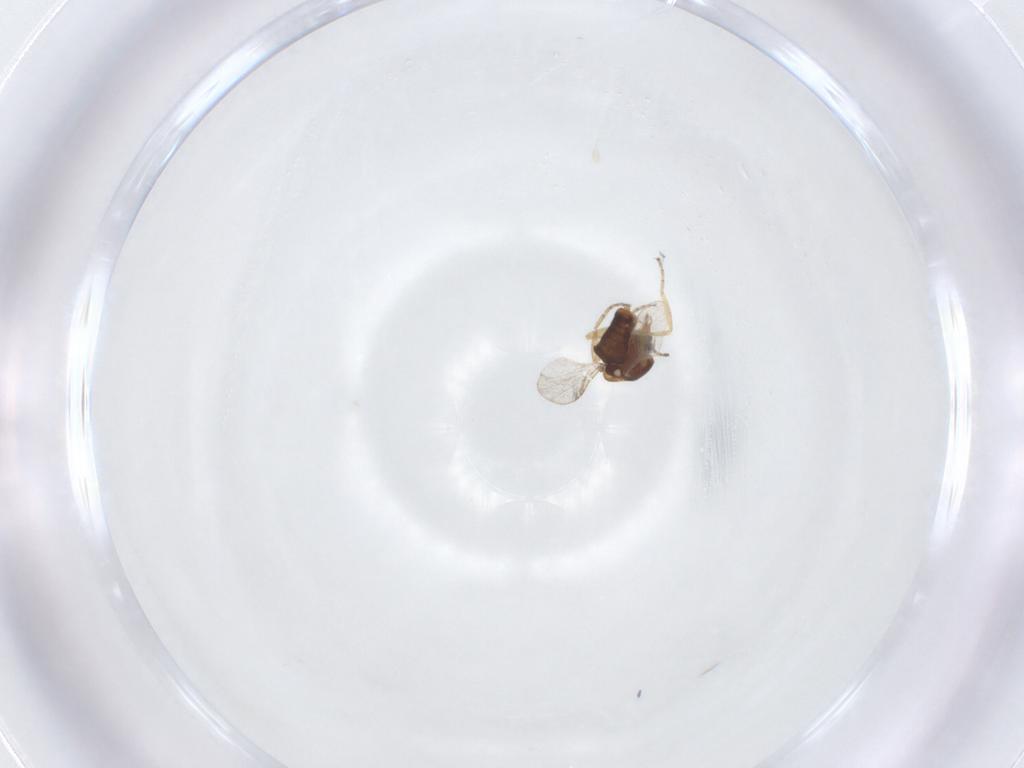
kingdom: Animalia
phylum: Arthropoda
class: Insecta
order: Diptera
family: Ceratopogonidae
